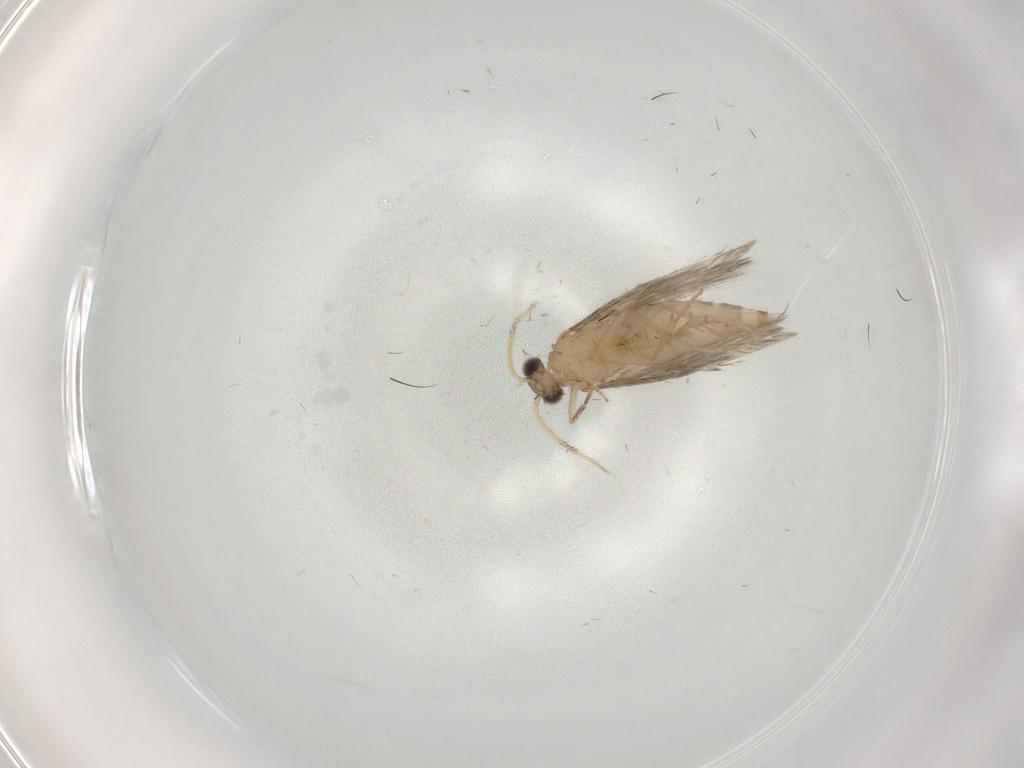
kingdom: Animalia
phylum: Arthropoda
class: Insecta
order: Trichoptera
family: Hydroptilidae
